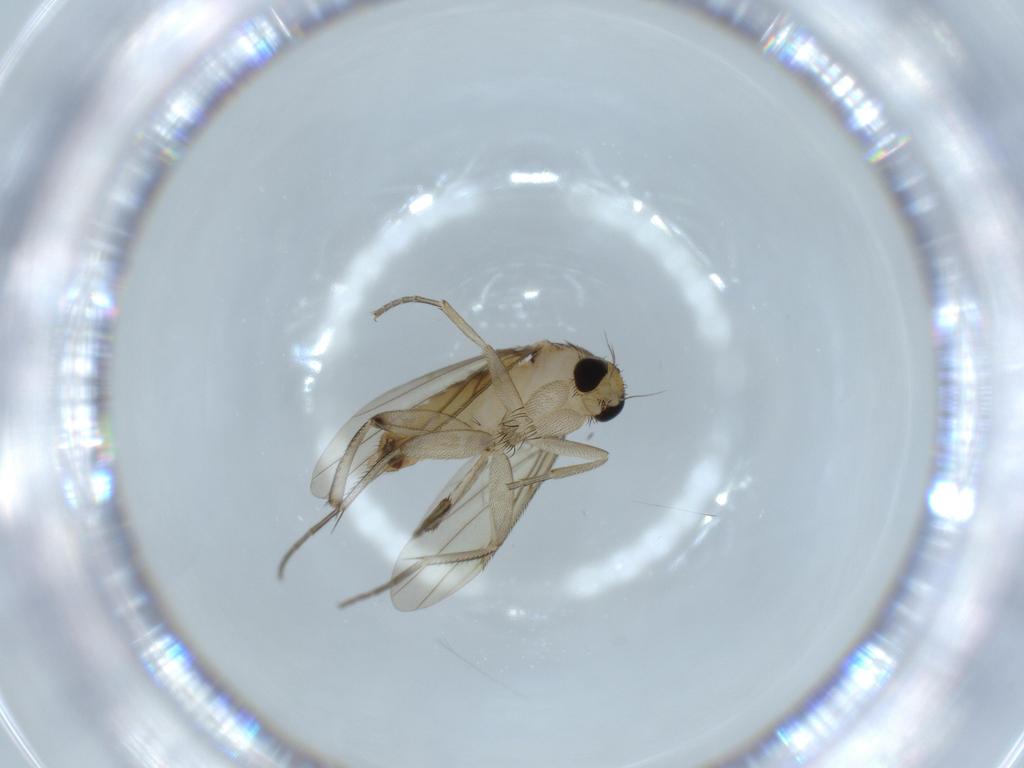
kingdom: Animalia
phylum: Arthropoda
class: Insecta
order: Diptera
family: Phoridae
